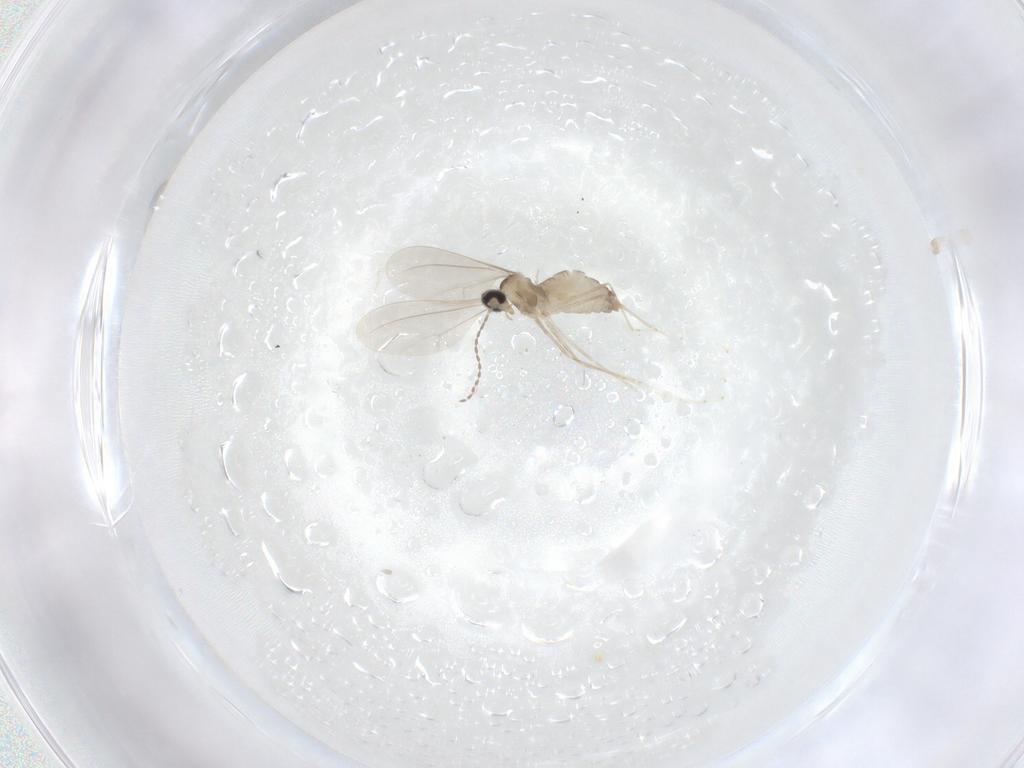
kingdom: Animalia
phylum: Arthropoda
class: Insecta
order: Diptera
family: Cecidomyiidae
